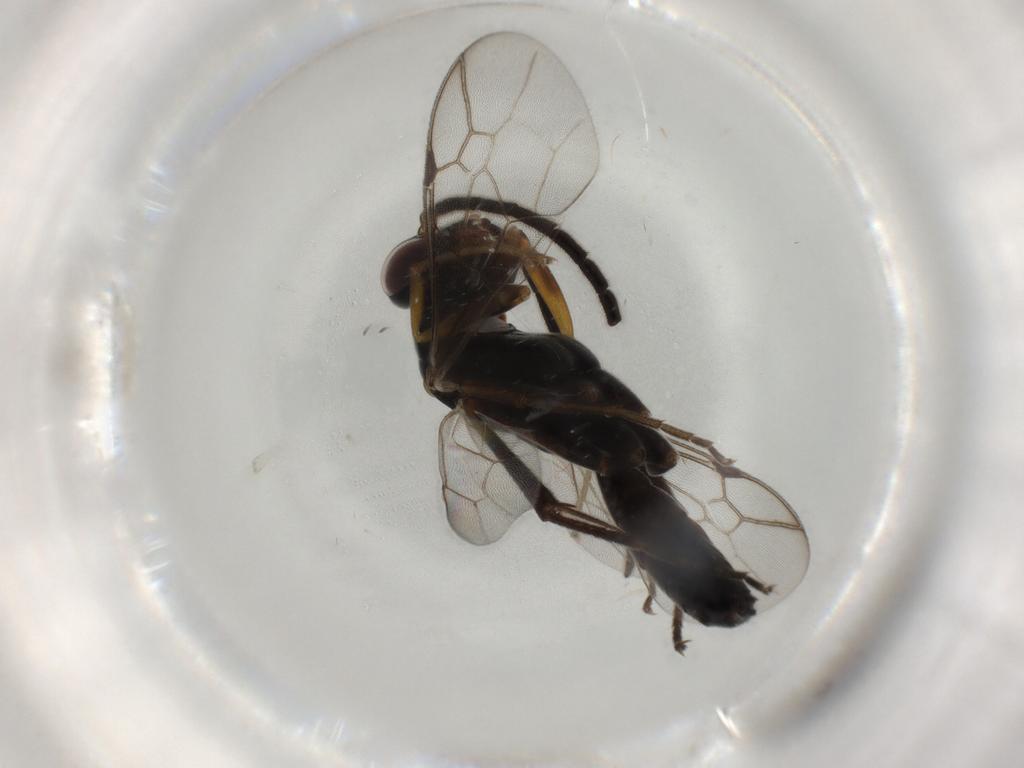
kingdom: Animalia
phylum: Arthropoda
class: Insecta
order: Hymenoptera
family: Pompilidae
